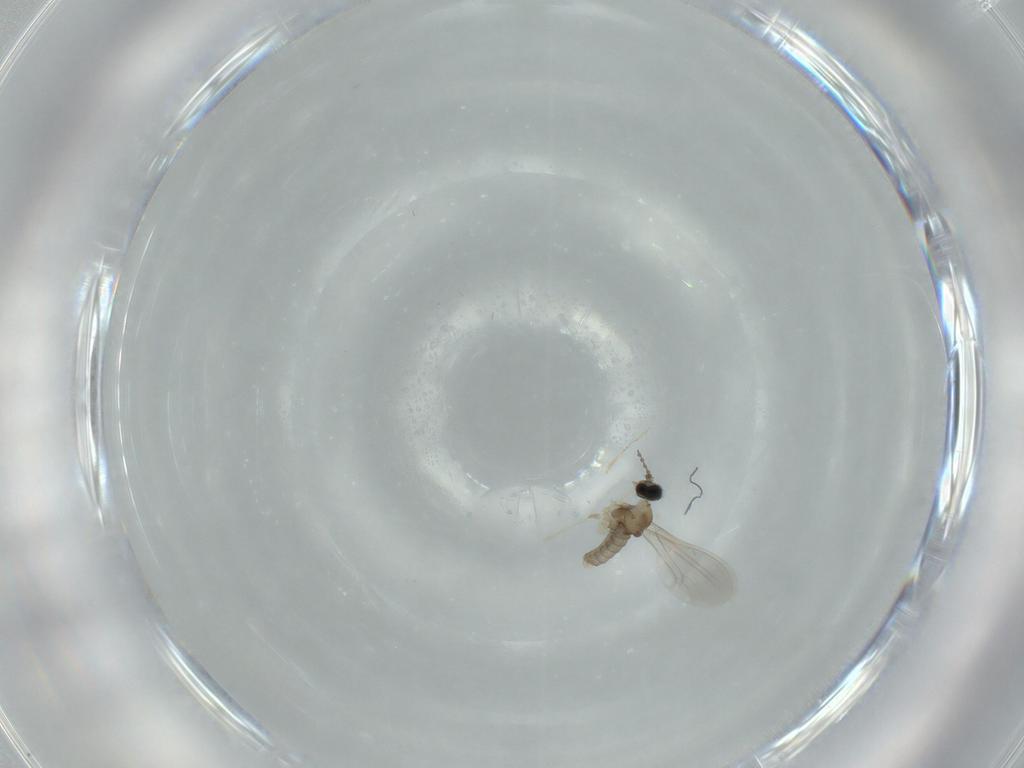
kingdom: Animalia
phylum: Arthropoda
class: Insecta
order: Diptera
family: Cecidomyiidae
